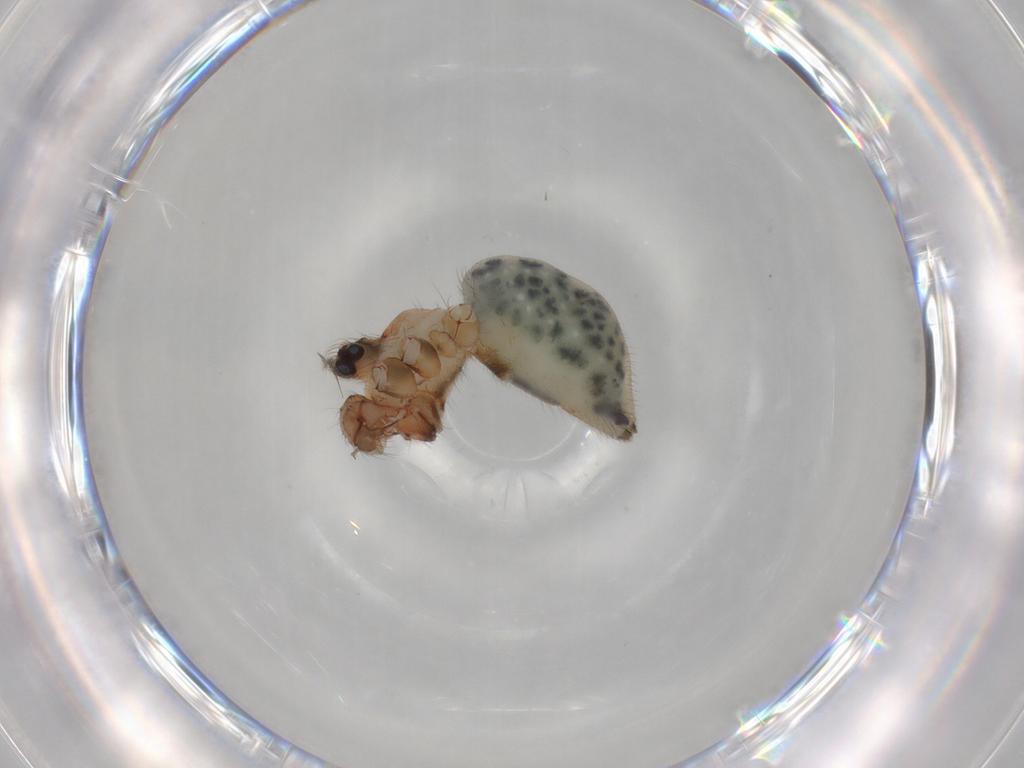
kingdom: Animalia
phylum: Arthropoda
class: Arachnida
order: Araneae
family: Pholcidae
